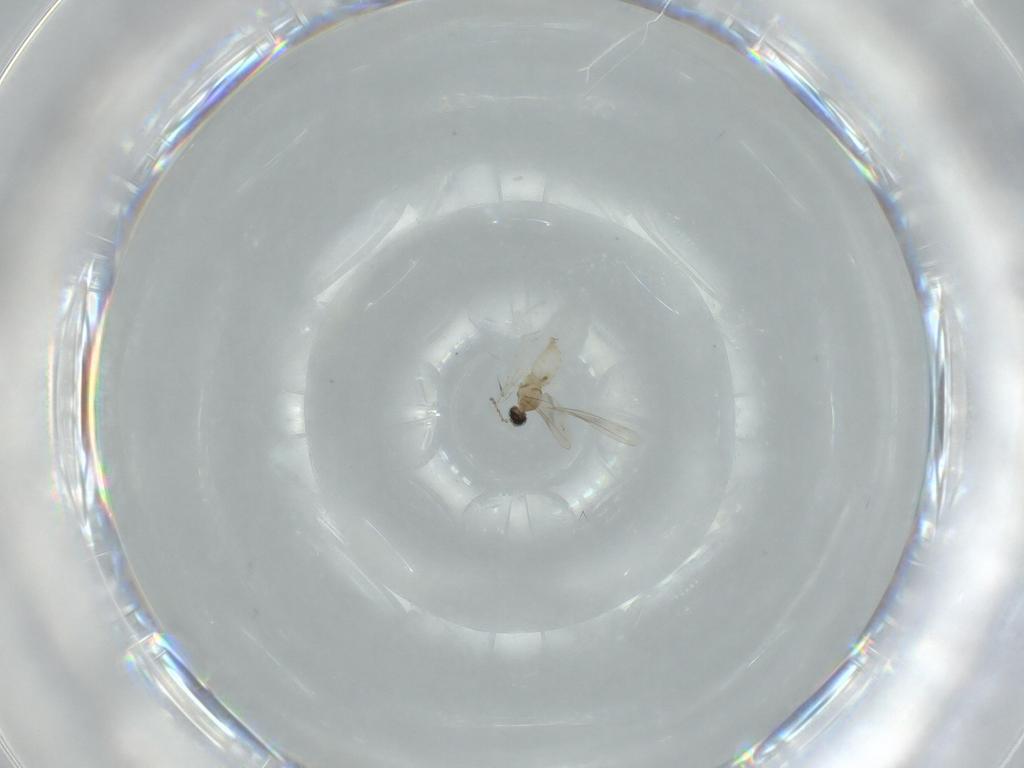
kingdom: Animalia
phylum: Arthropoda
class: Insecta
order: Diptera
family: Cecidomyiidae
